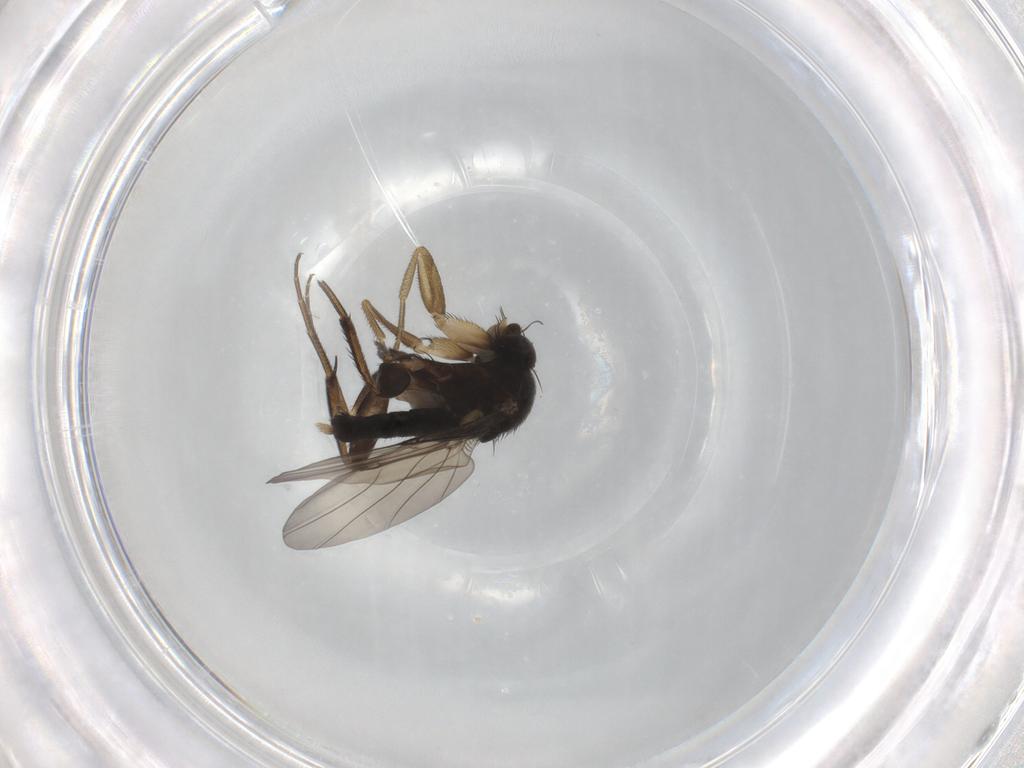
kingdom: Animalia
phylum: Arthropoda
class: Insecta
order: Diptera
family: Phoridae
